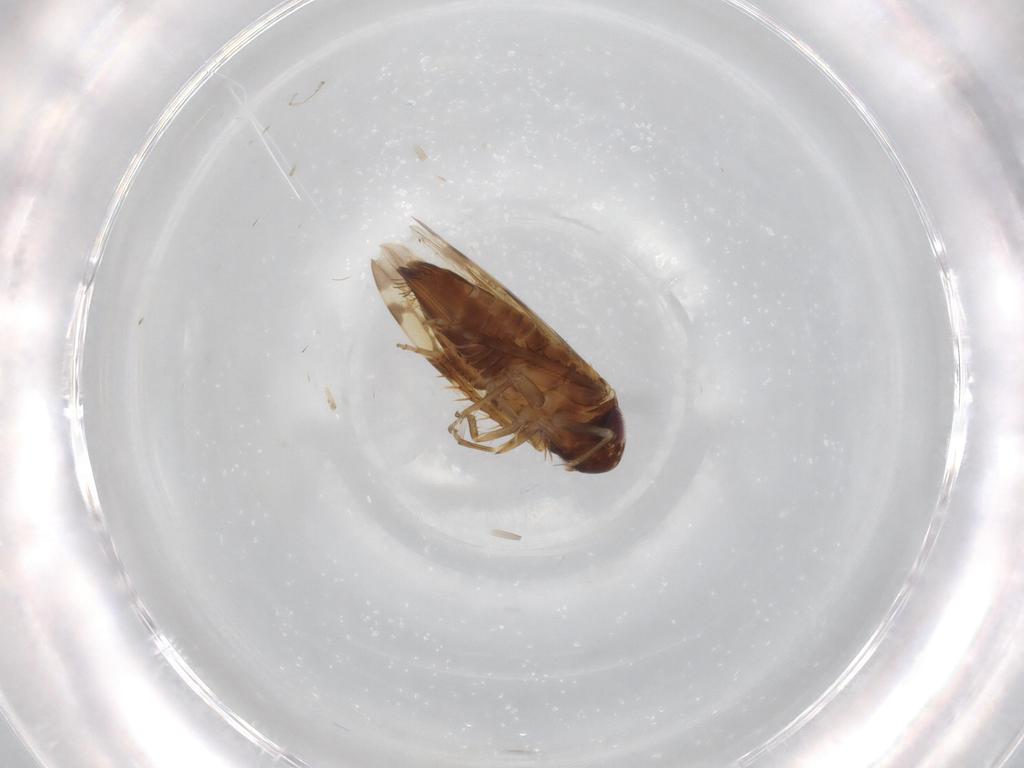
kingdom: Animalia
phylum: Arthropoda
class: Insecta
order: Hemiptera
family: Cicadellidae
